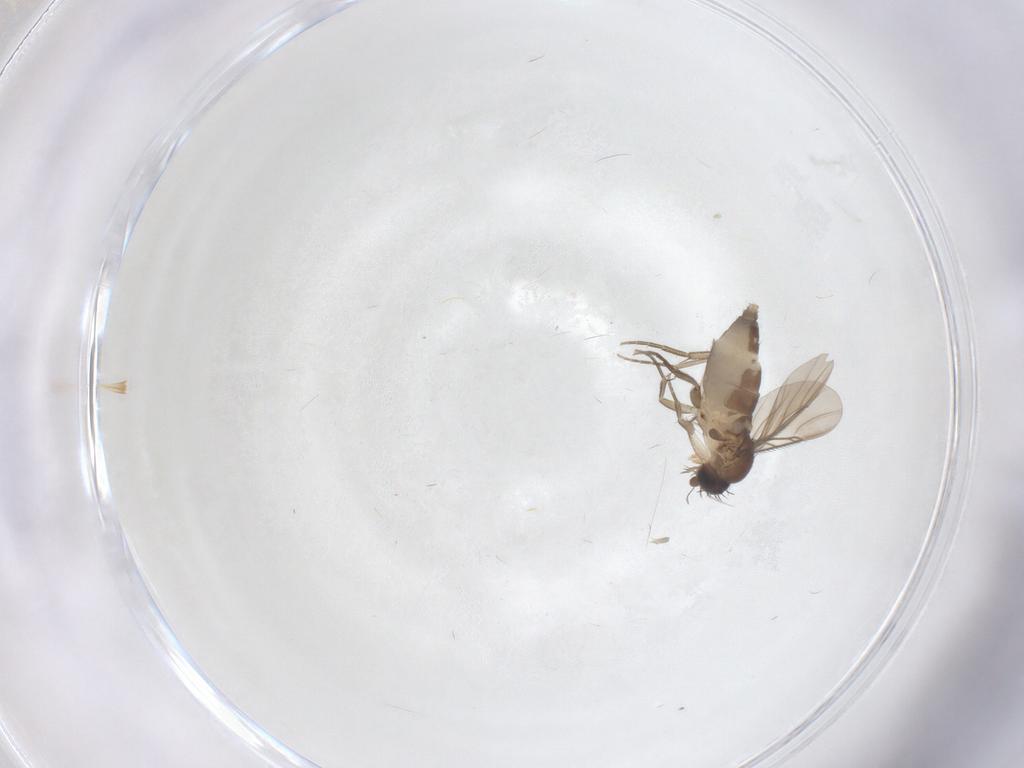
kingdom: Animalia
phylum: Arthropoda
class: Insecta
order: Diptera
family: Phoridae
